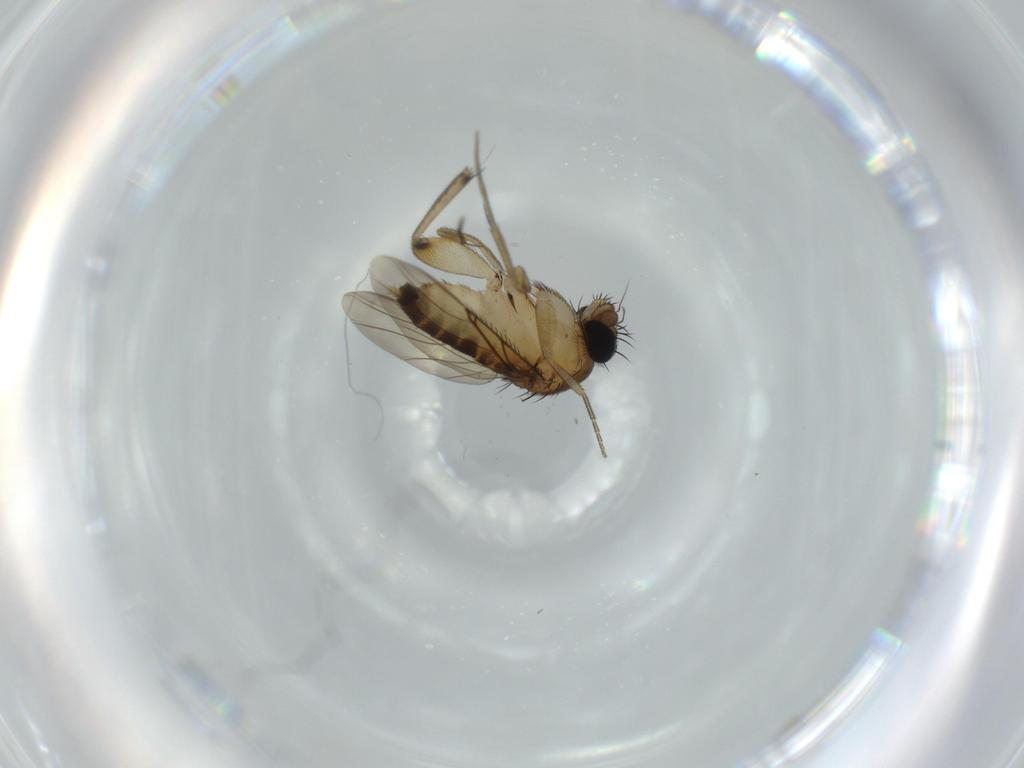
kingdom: Animalia
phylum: Arthropoda
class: Insecta
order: Diptera
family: Phoridae
